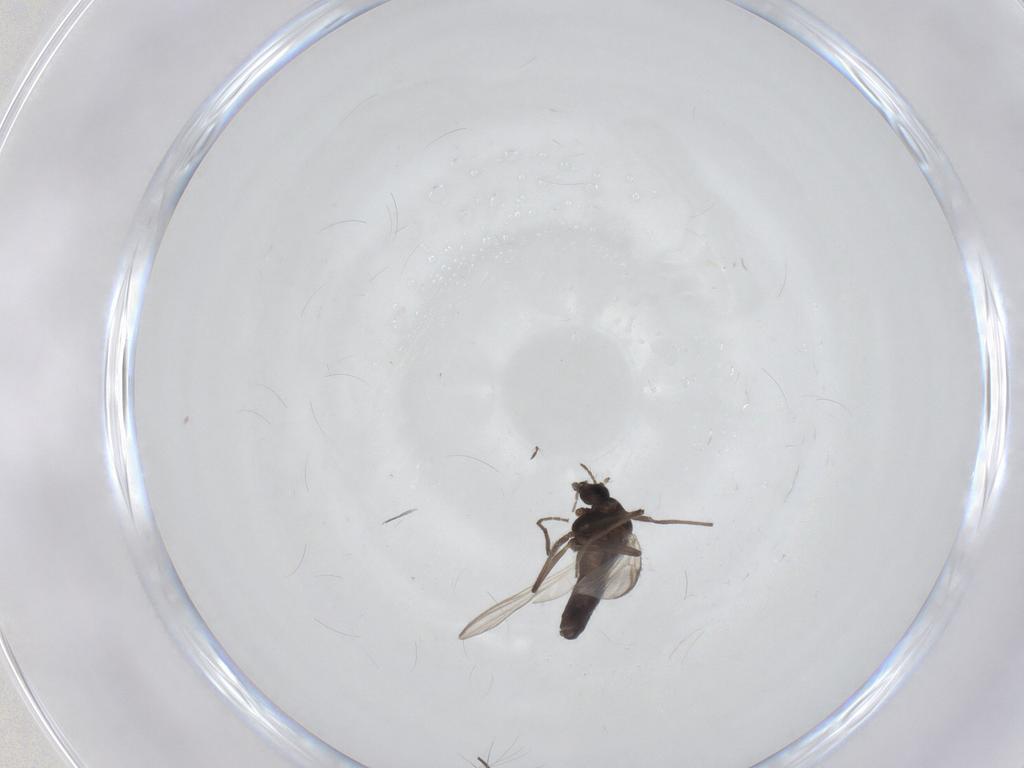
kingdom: Animalia
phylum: Arthropoda
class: Insecta
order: Diptera
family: Chironomidae
